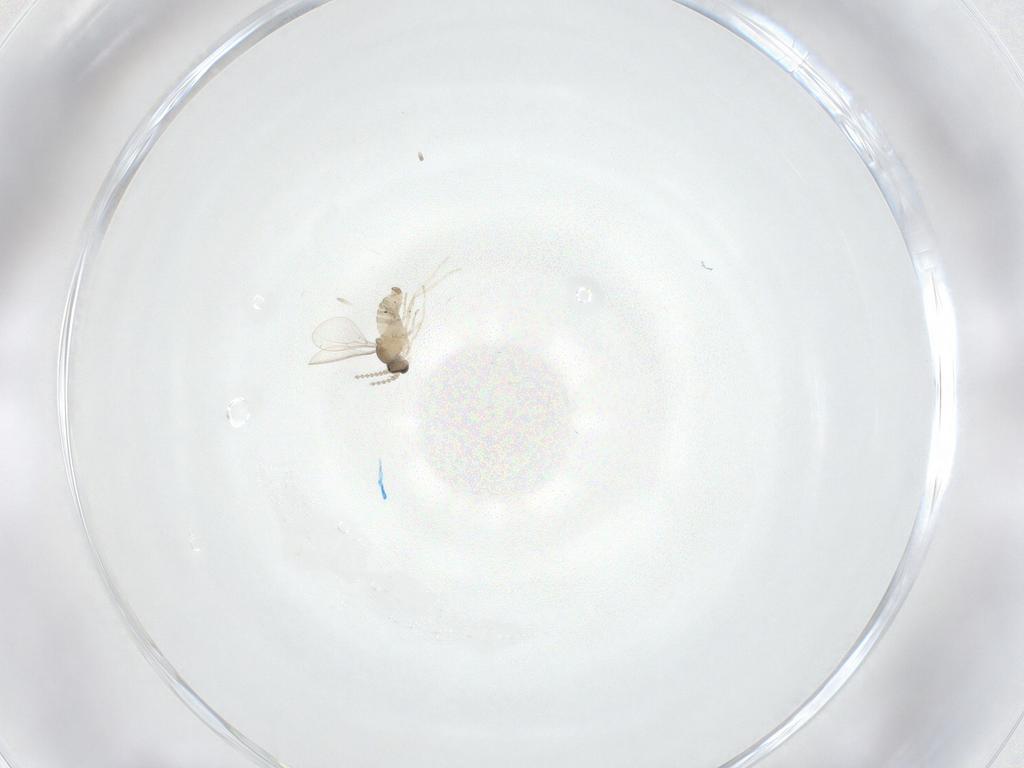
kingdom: Animalia
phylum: Arthropoda
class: Insecta
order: Diptera
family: Cecidomyiidae
